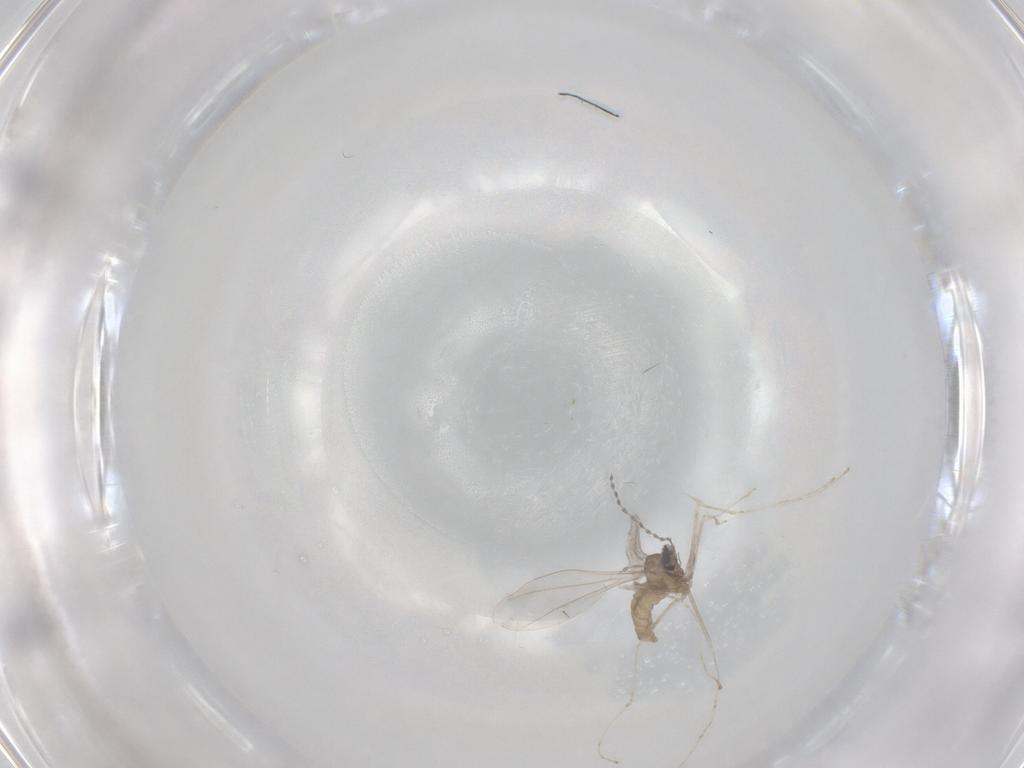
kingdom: Animalia
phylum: Arthropoda
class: Insecta
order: Diptera
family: Cecidomyiidae
